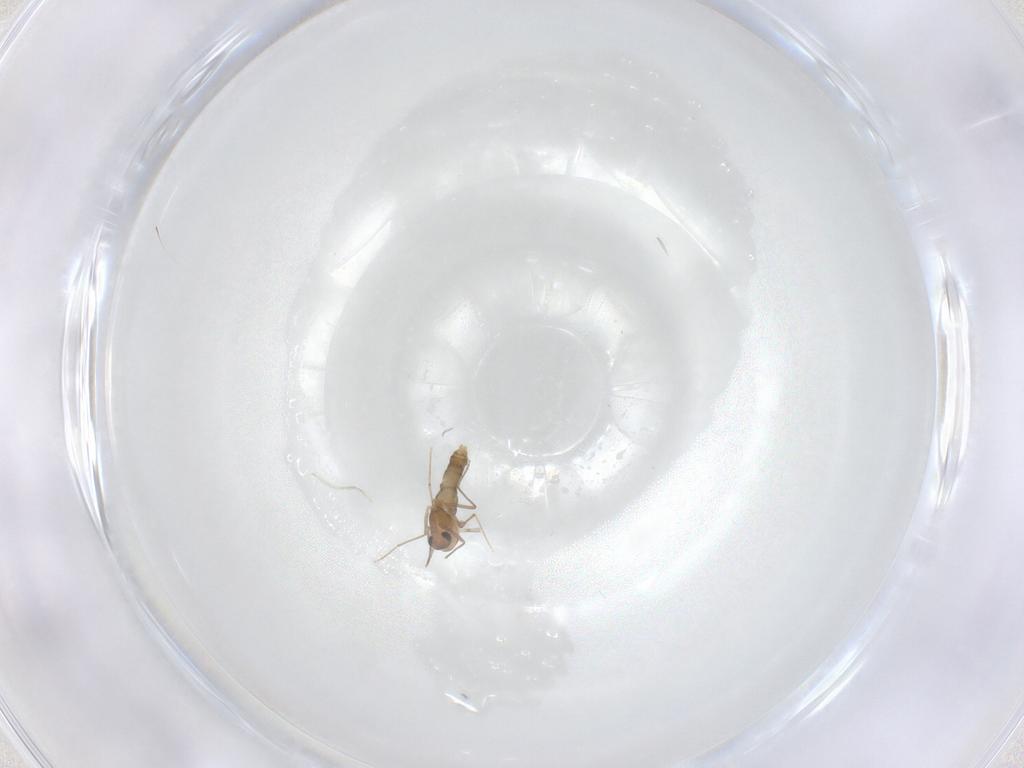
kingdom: Animalia
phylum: Arthropoda
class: Insecta
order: Diptera
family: Chironomidae
